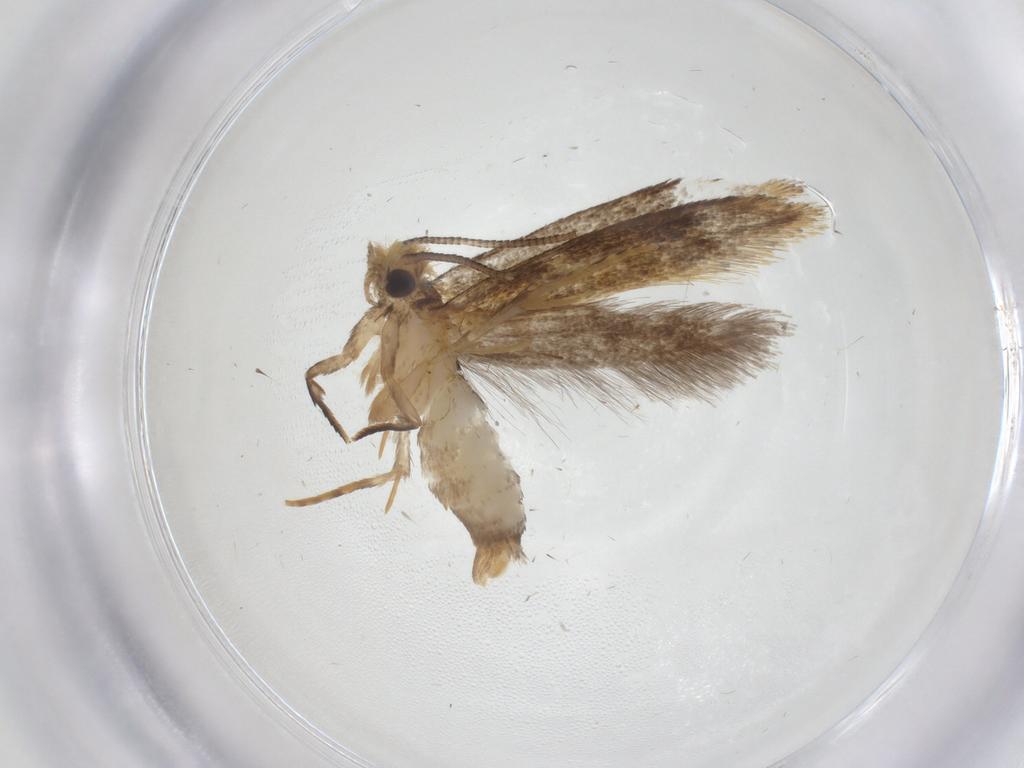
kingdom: Animalia
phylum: Arthropoda
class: Insecta
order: Lepidoptera
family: Tineidae
